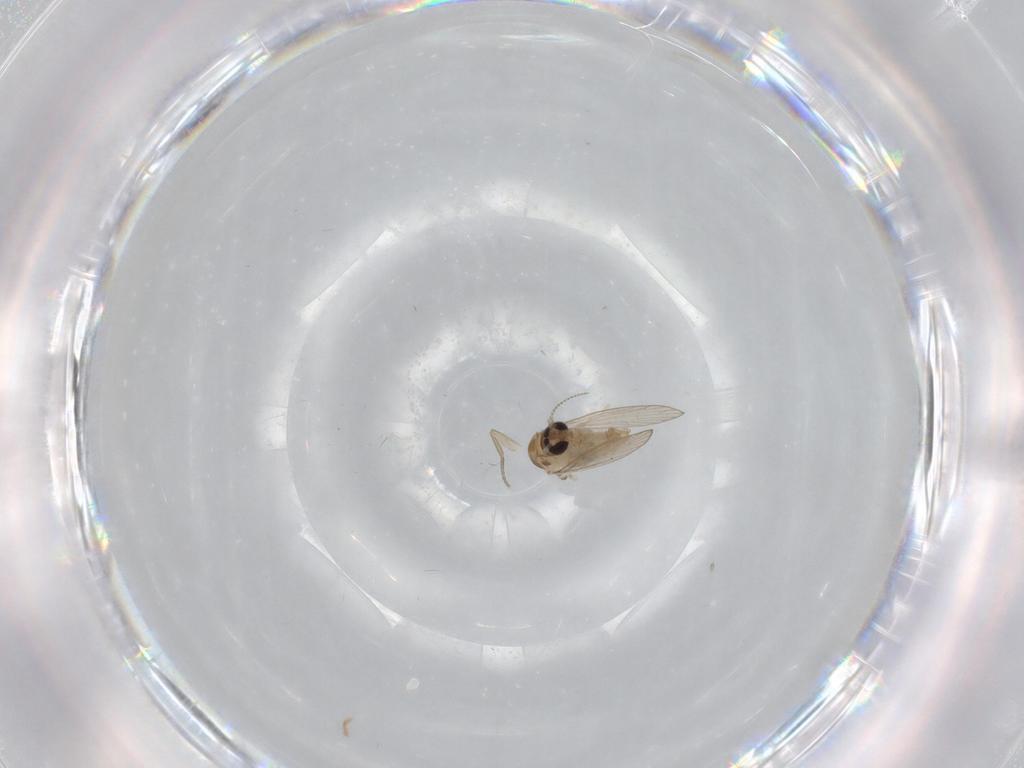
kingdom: Animalia
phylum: Arthropoda
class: Insecta
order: Diptera
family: Psychodidae
